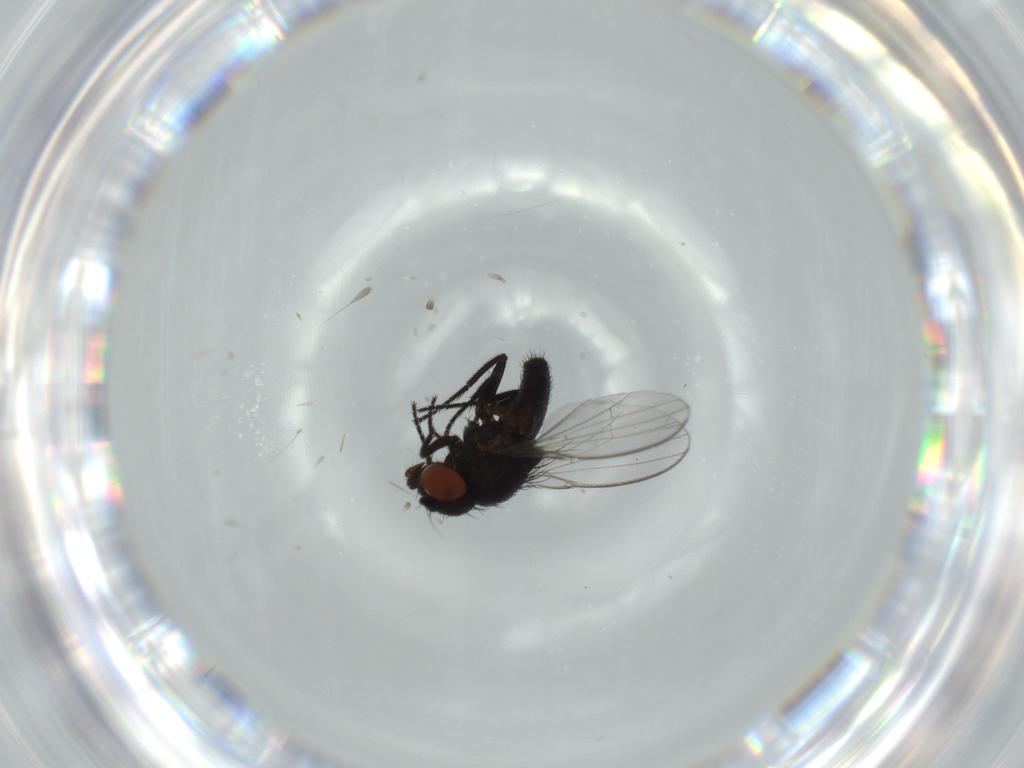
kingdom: Animalia
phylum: Arthropoda
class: Insecta
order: Diptera
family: Milichiidae
